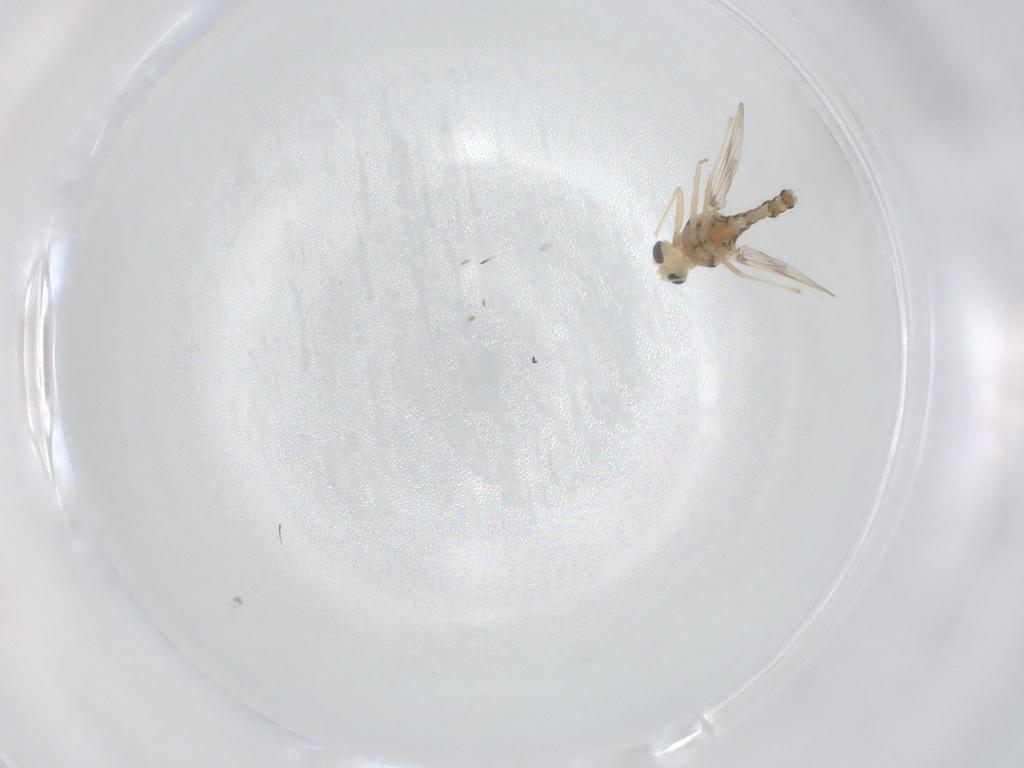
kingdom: Animalia
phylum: Arthropoda
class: Insecta
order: Diptera
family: Chironomidae
